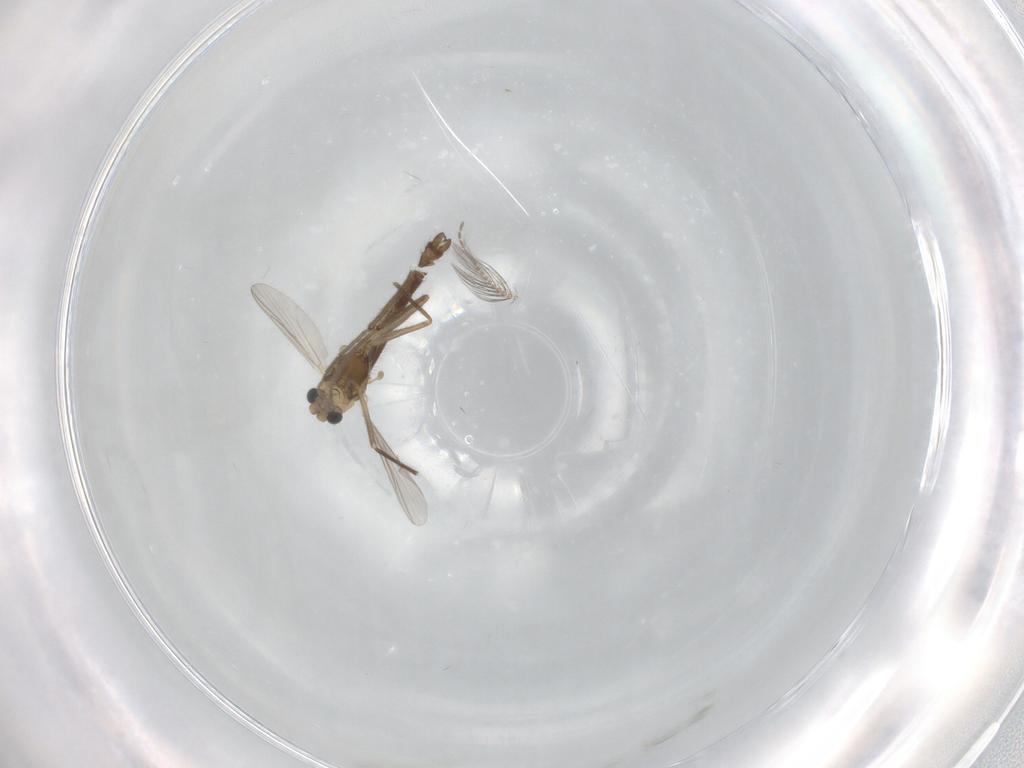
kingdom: Animalia
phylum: Arthropoda
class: Insecta
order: Diptera
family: Chironomidae
